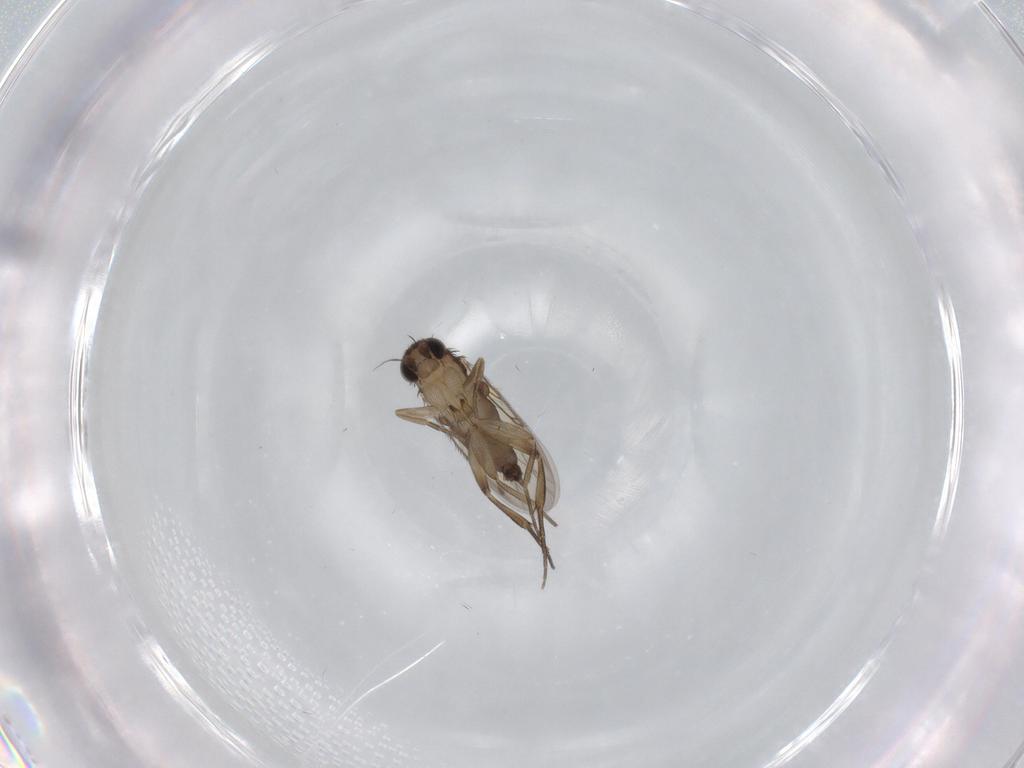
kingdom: Animalia
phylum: Arthropoda
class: Insecta
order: Diptera
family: Phoridae
